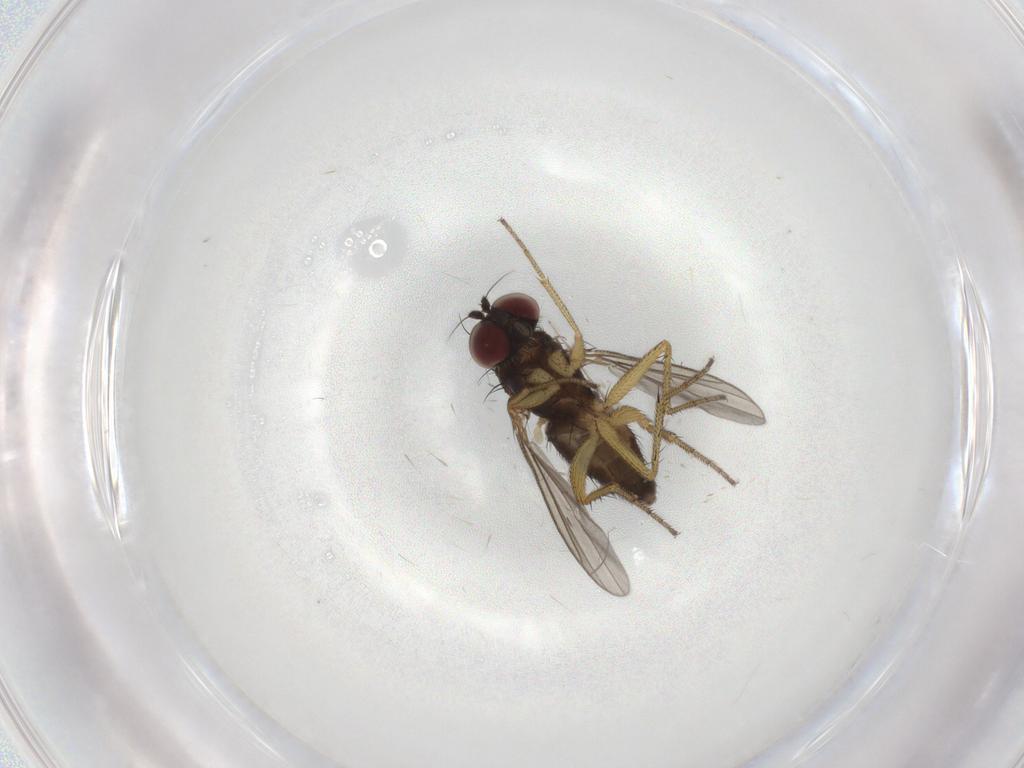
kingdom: Animalia
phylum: Arthropoda
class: Insecta
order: Diptera
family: Dolichopodidae
